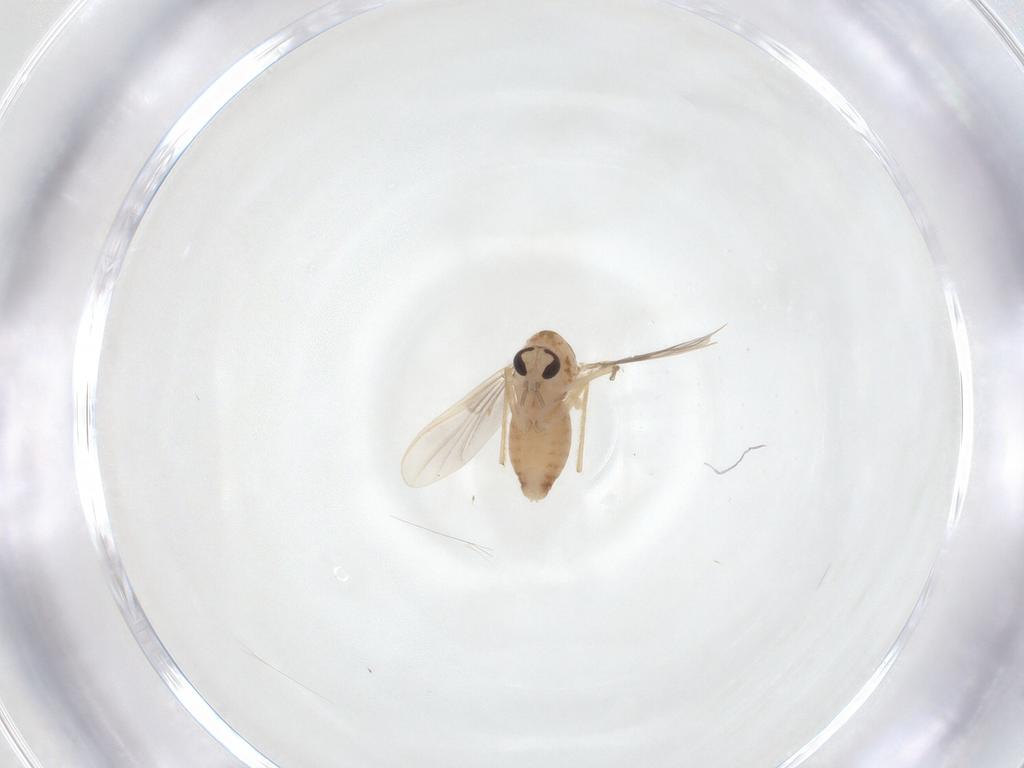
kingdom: Animalia
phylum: Arthropoda
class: Insecta
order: Diptera
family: Chironomidae
